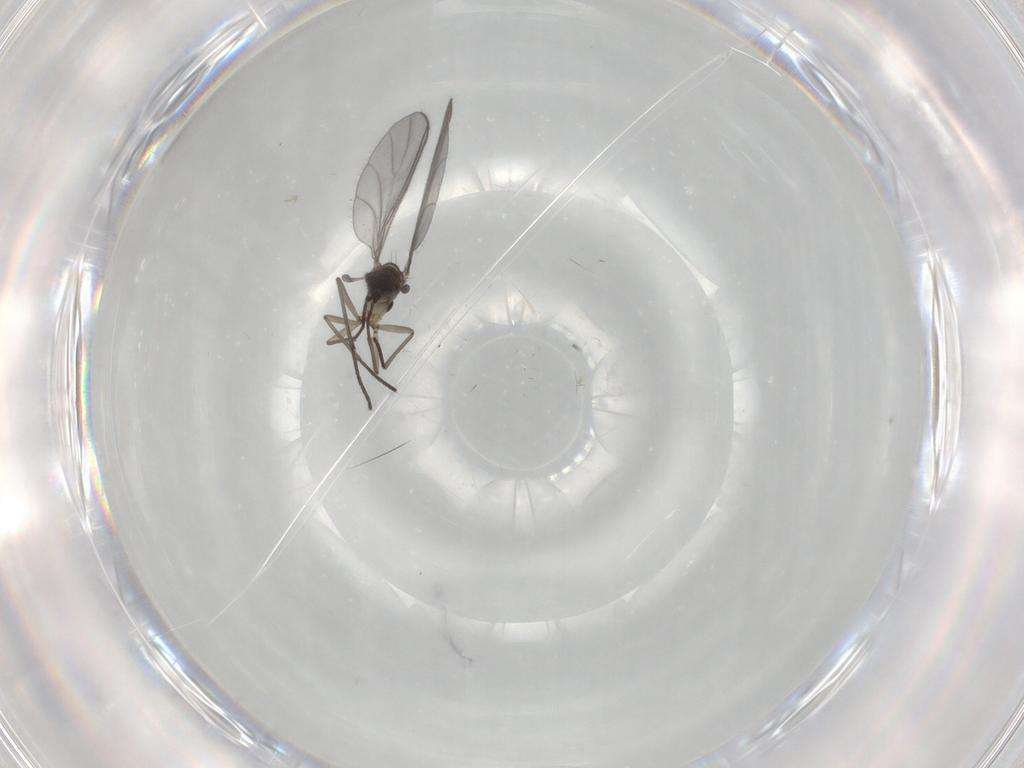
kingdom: Animalia
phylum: Arthropoda
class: Insecta
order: Diptera
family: Sciaridae
